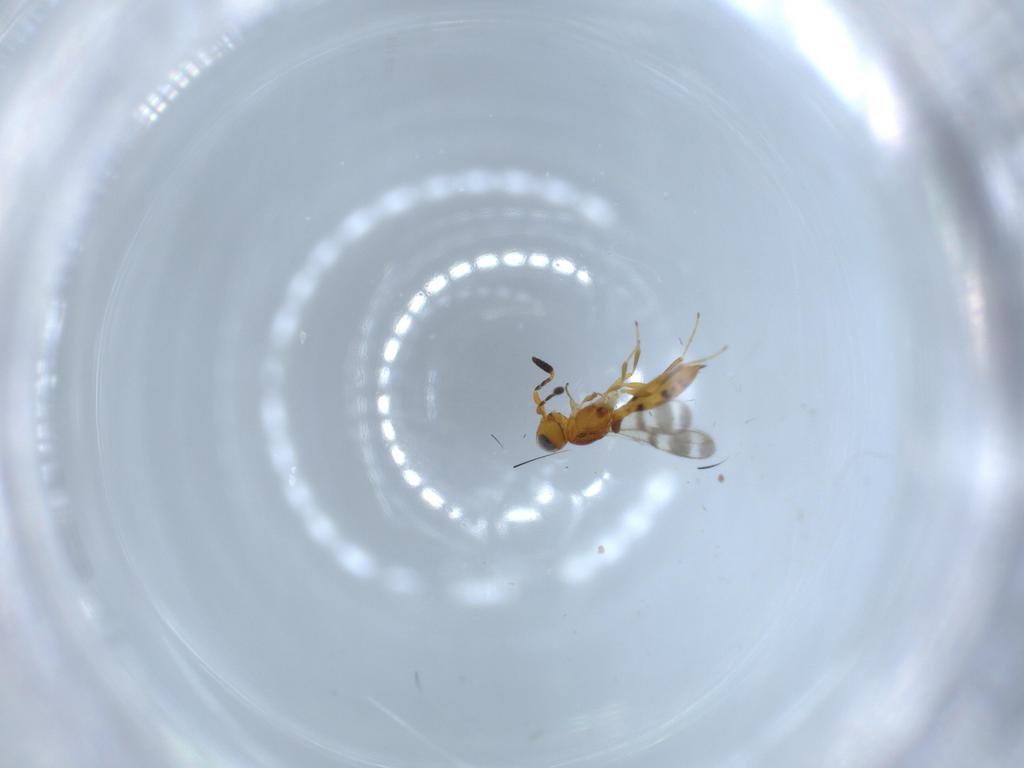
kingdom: Animalia
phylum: Arthropoda
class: Insecta
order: Hymenoptera
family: Scelionidae
